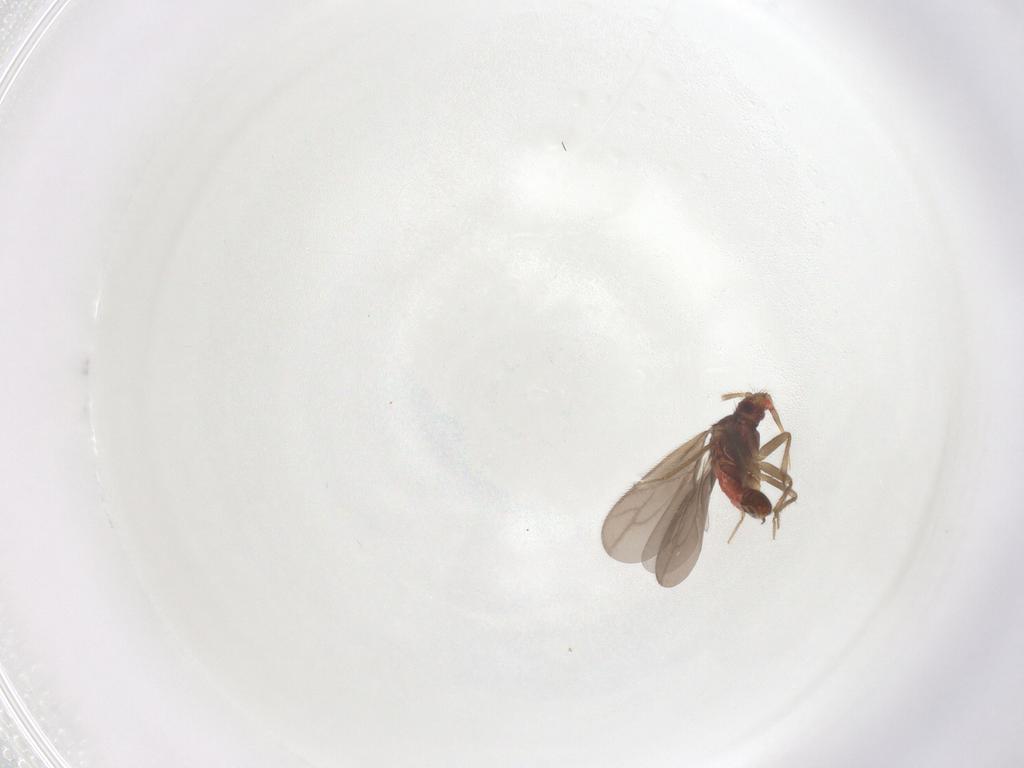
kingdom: Animalia
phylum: Arthropoda
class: Insecta
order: Hemiptera
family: Ceratocombidae
